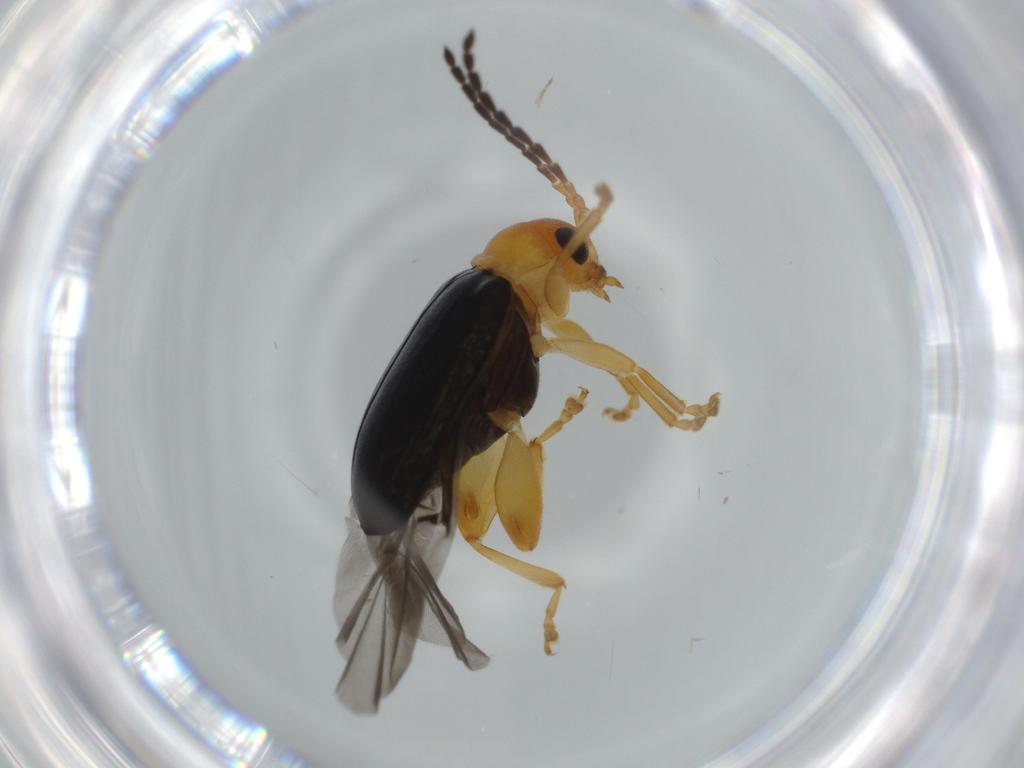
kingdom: Animalia
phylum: Arthropoda
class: Insecta
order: Coleoptera
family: Chrysomelidae
